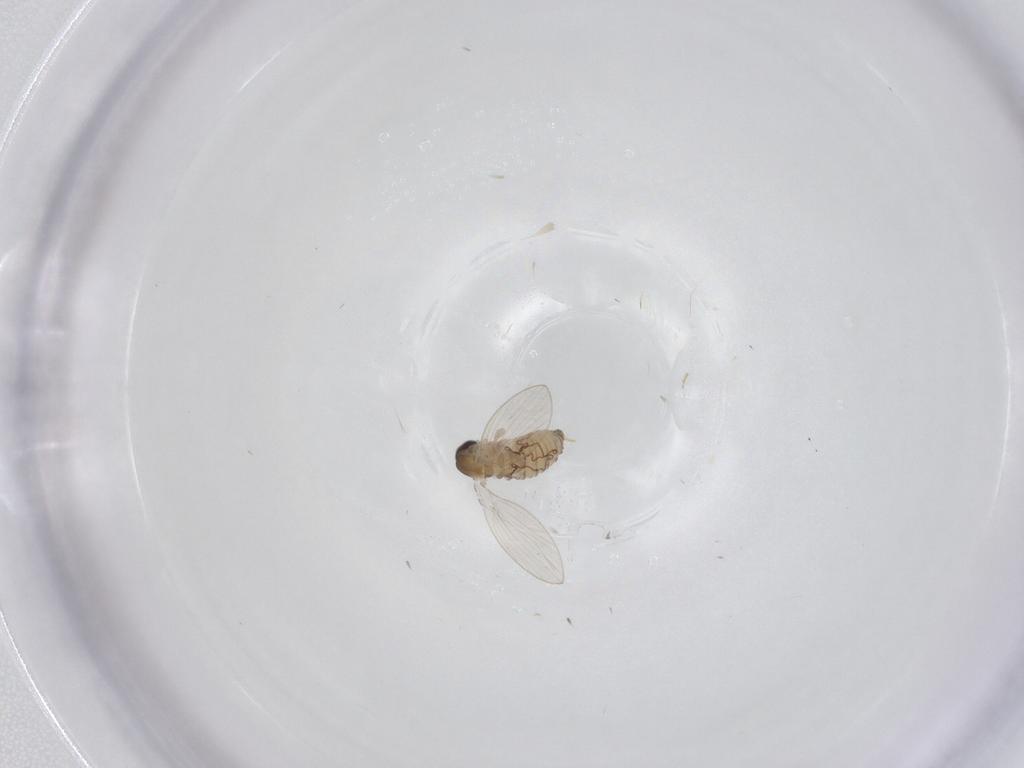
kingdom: Animalia
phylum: Arthropoda
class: Insecta
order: Diptera
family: Psychodidae
